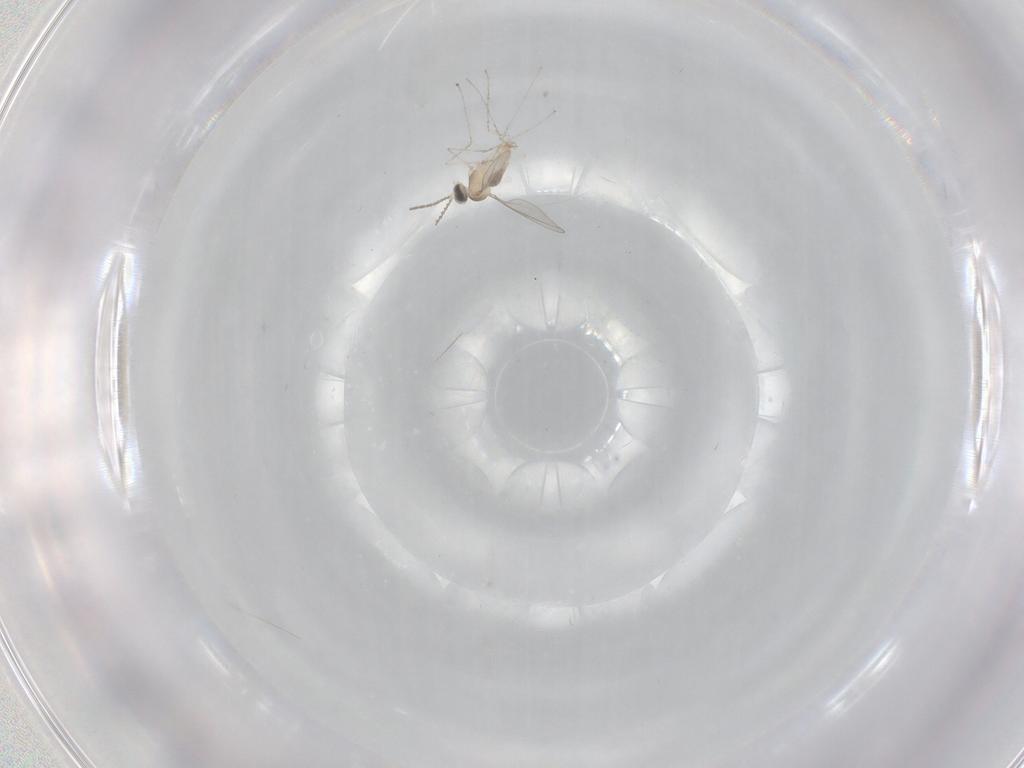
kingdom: Animalia
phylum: Arthropoda
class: Insecta
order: Diptera
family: Cecidomyiidae
